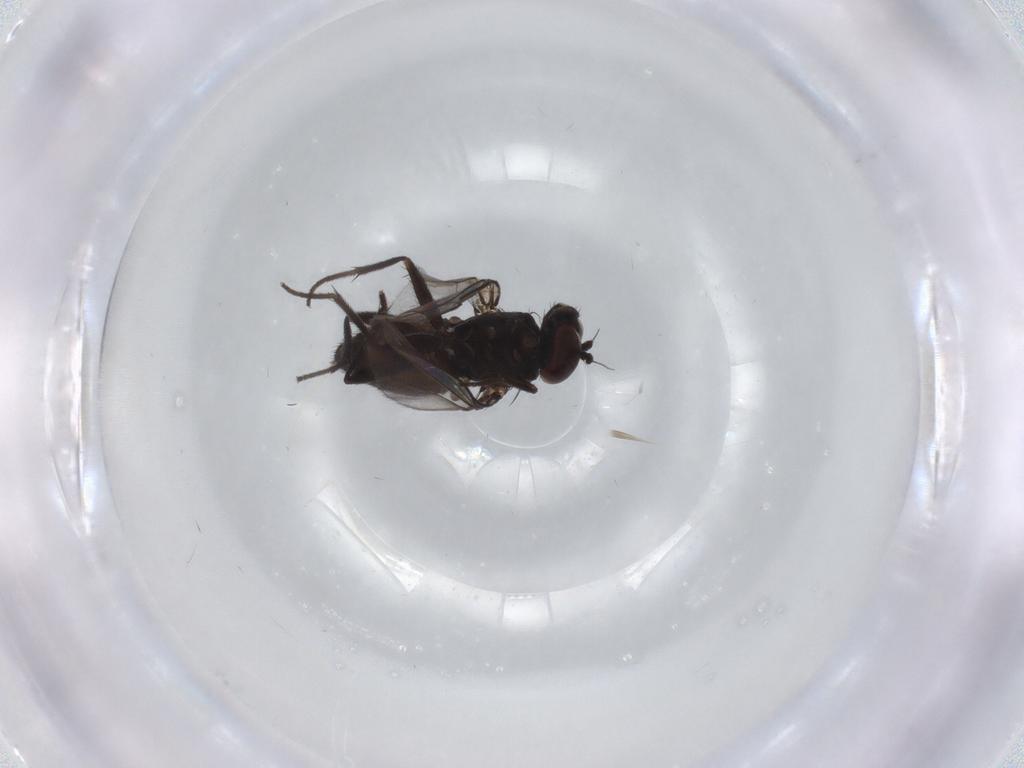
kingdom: Animalia
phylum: Arthropoda
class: Insecta
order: Diptera
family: Dolichopodidae
